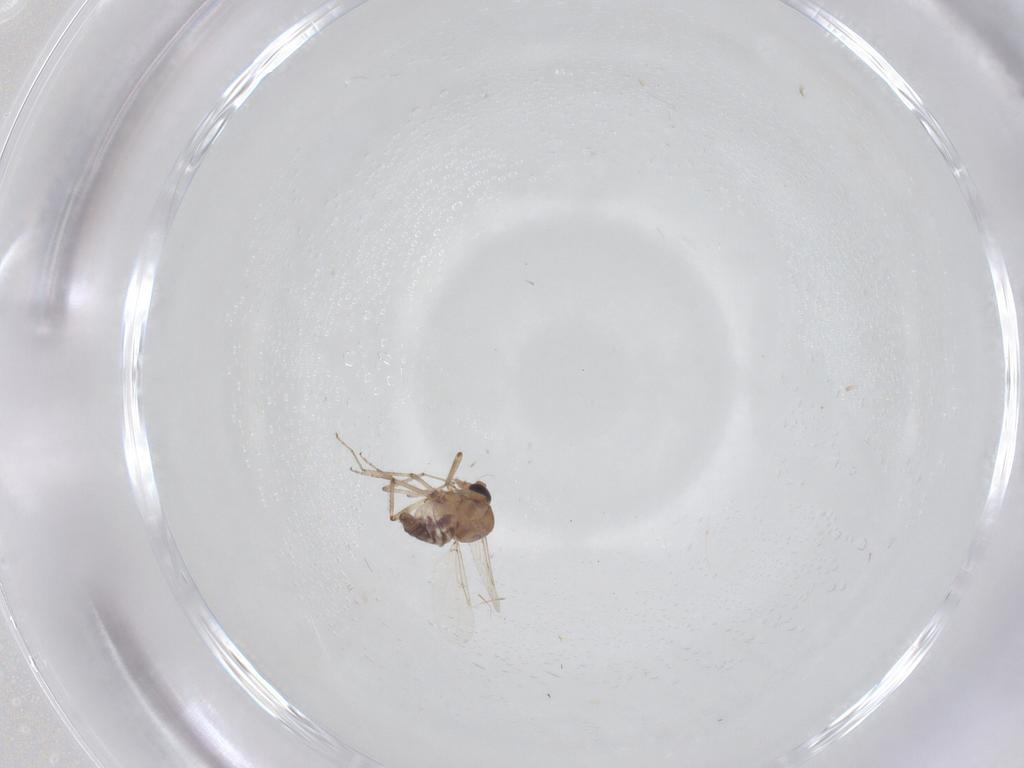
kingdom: Animalia
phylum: Arthropoda
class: Insecta
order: Diptera
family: Ceratopogonidae
